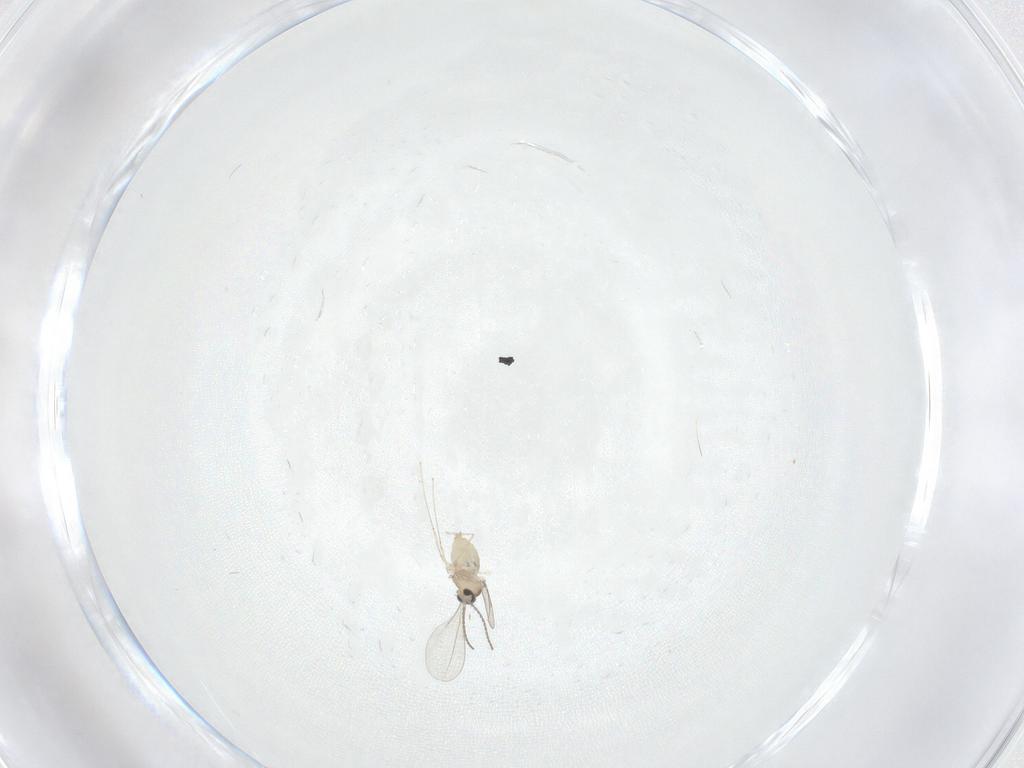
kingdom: Animalia
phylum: Arthropoda
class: Insecta
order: Diptera
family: Cecidomyiidae
